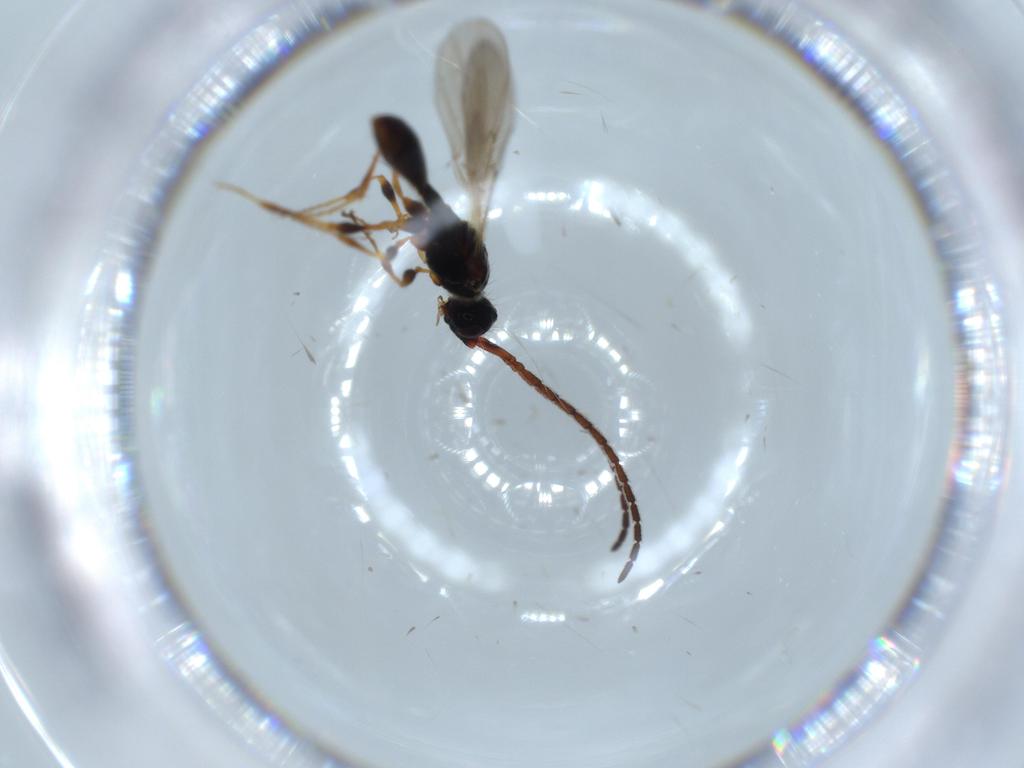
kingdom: Animalia
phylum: Arthropoda
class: Insecta
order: Hymenoptera
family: Diapriidae
